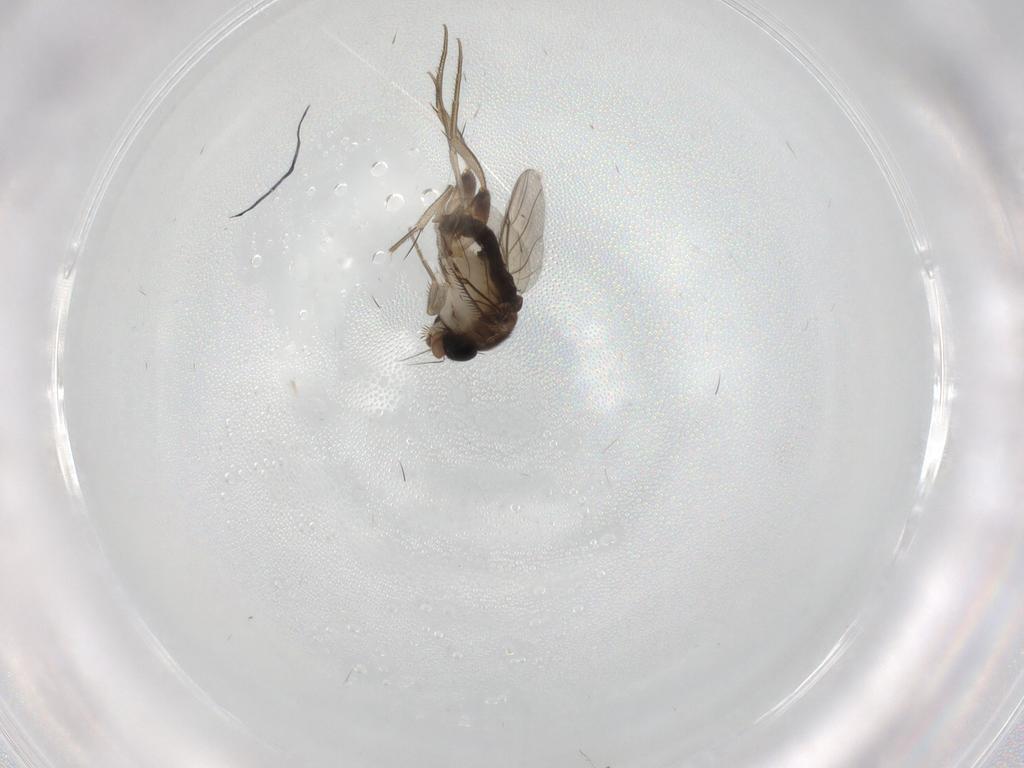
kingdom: Animalia
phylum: Arthropoda
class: Insecta
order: Diptera
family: Phoridae
